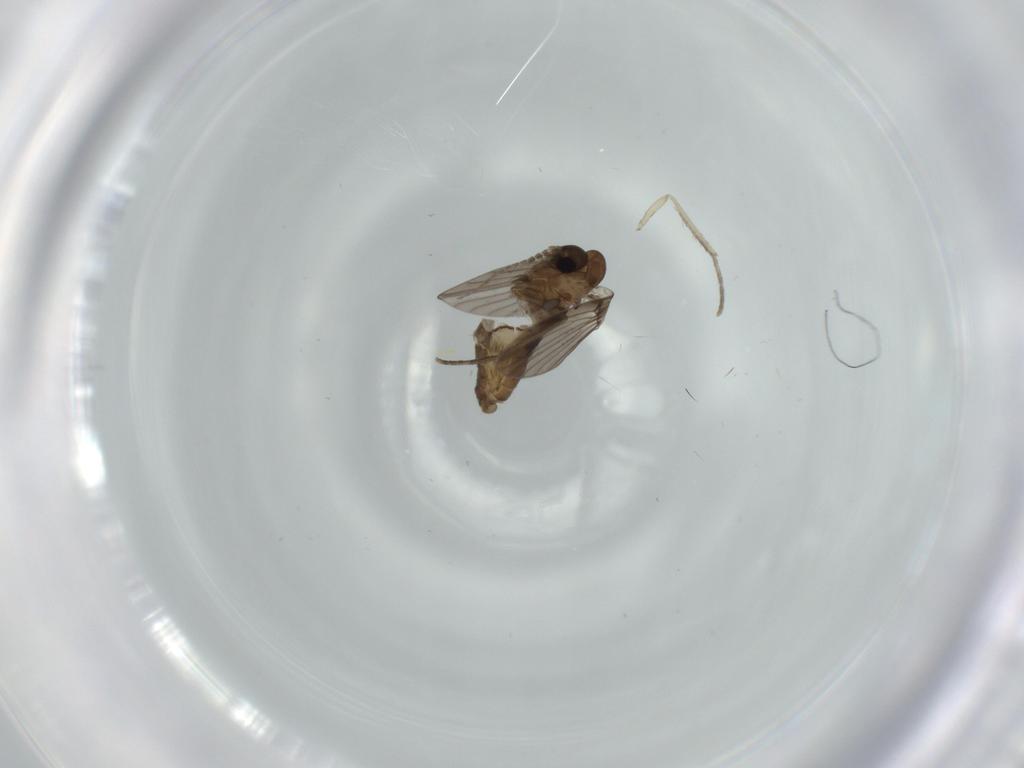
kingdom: Animalia
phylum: Arthropoda
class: Insecta
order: Diptera
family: Psychodidae
